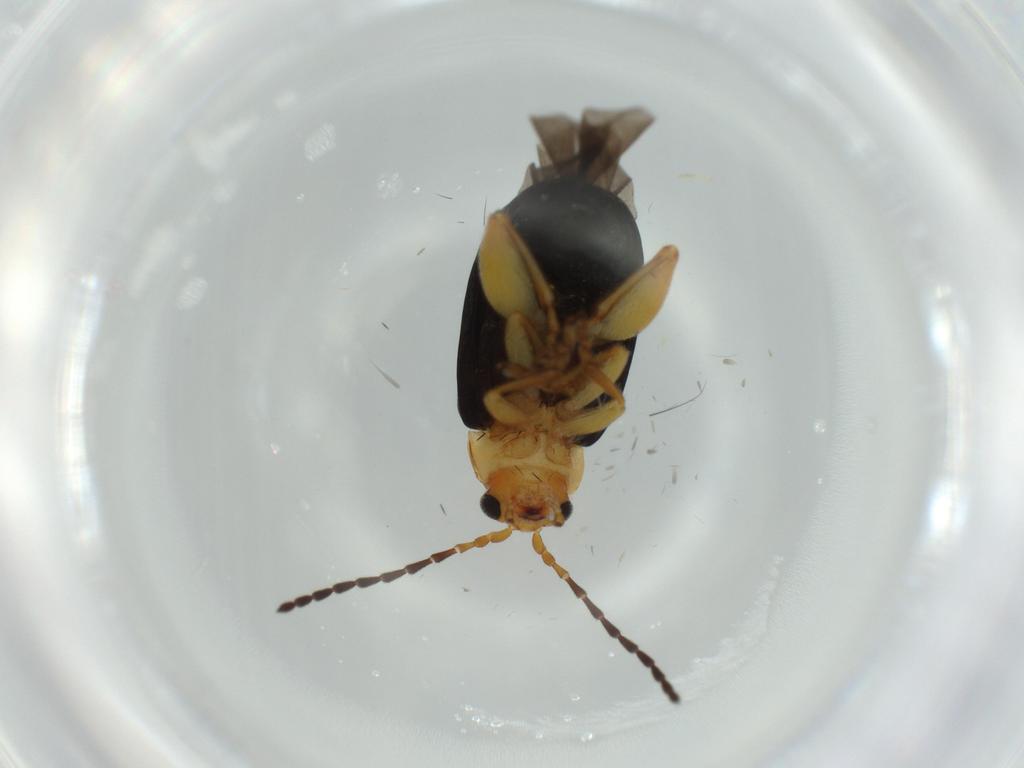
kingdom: Animalia
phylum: Arthropoda
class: Insecta
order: Coleoptera
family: Chrysomelidae
